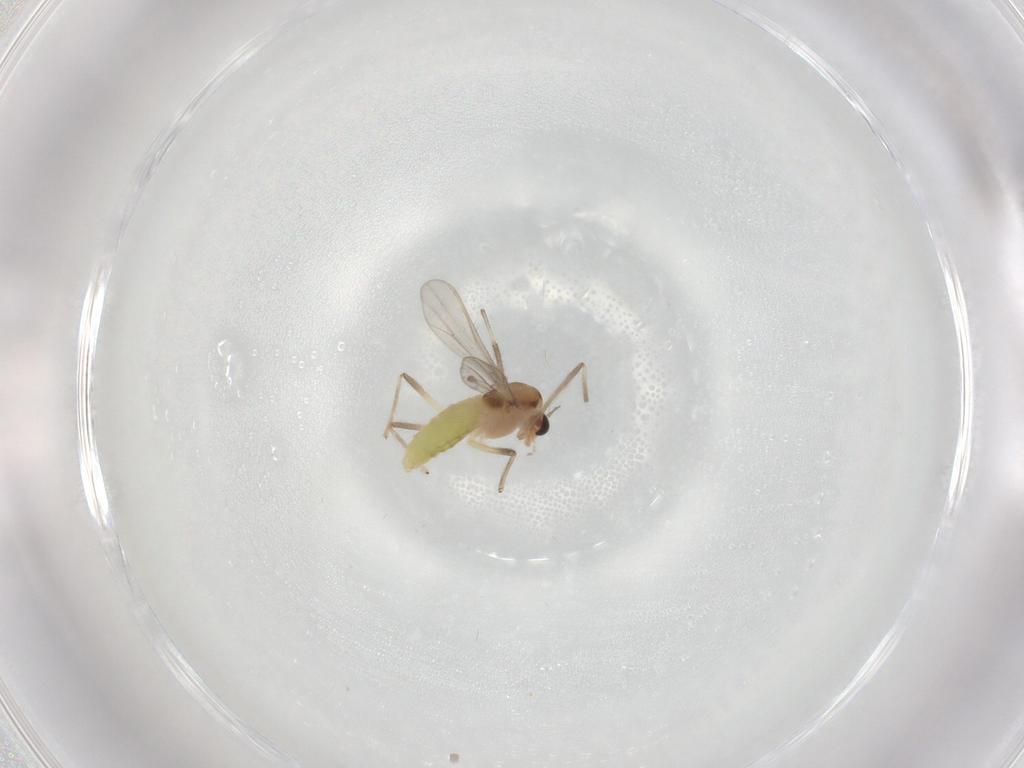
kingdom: Animalia
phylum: Arthropoda
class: Insecta
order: Diptera
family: Chironomidae
